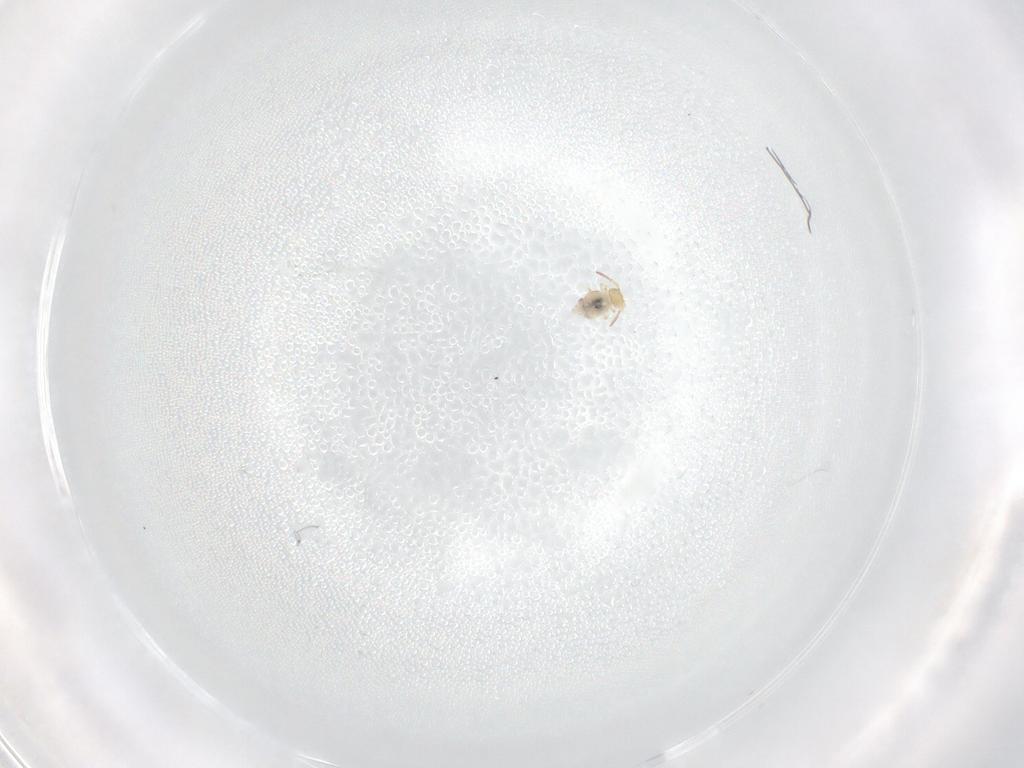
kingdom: Animalia
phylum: Arthropoda
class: Collembola
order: Symphypleona
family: Bourletiellidae
